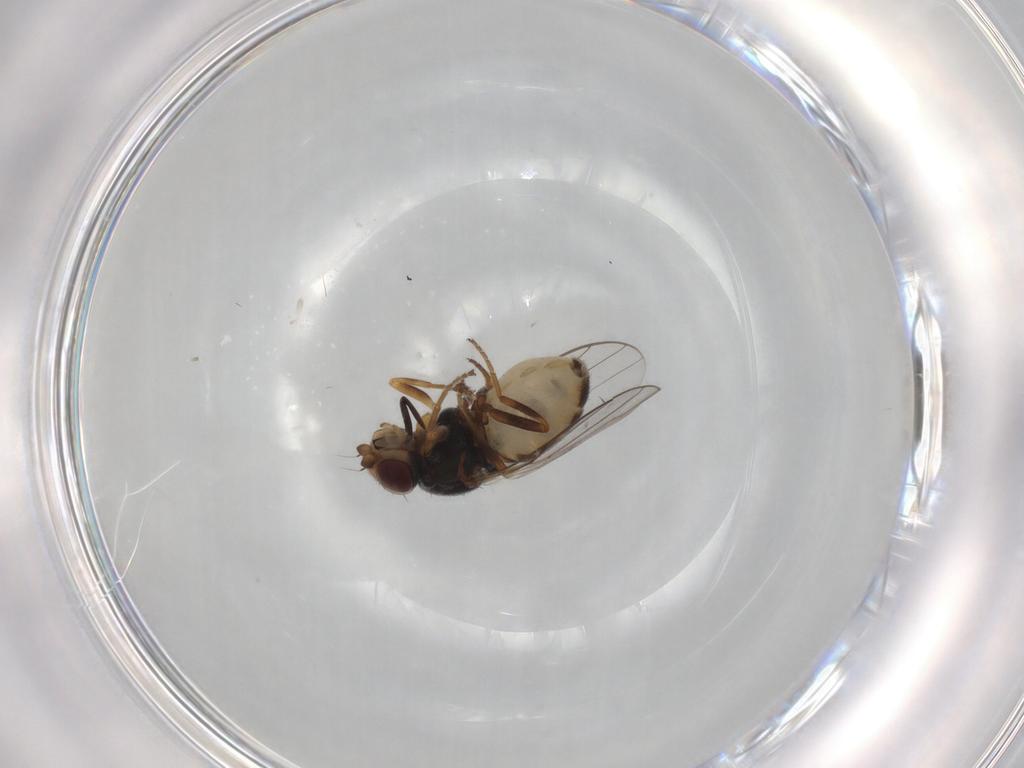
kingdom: Animalia
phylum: Arthropoda
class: Insecta
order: Diptera
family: Chloropidae
